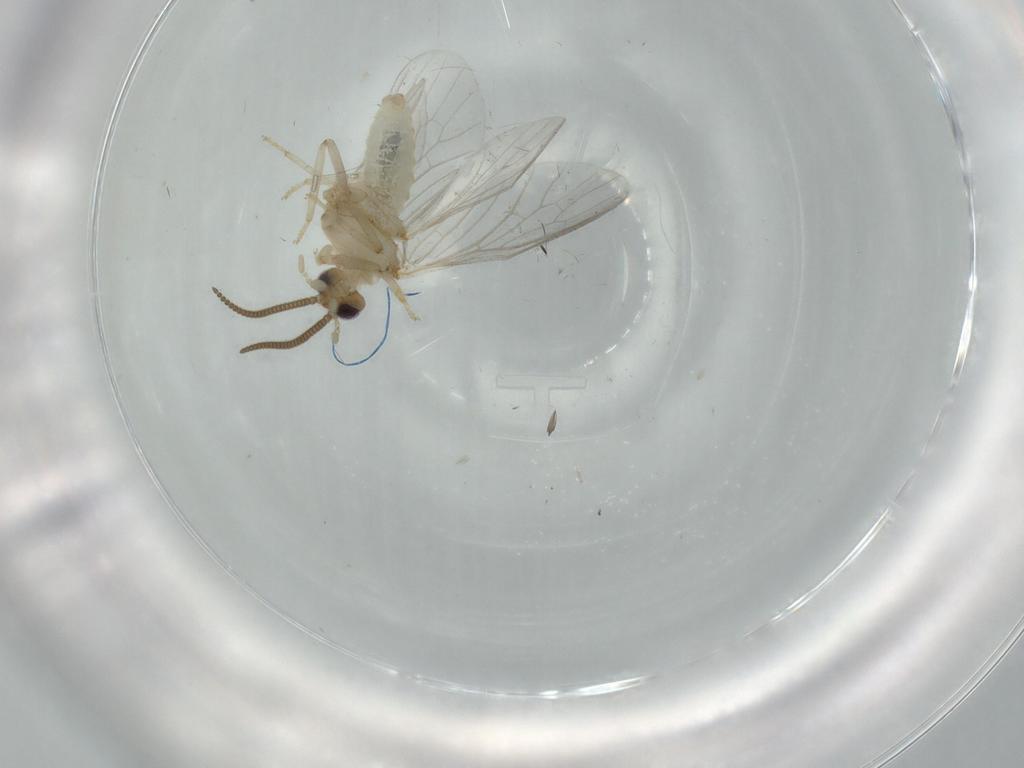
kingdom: Animalia
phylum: Arthropoda
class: Insecta
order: Neuroptera
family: Coniopterygidae
